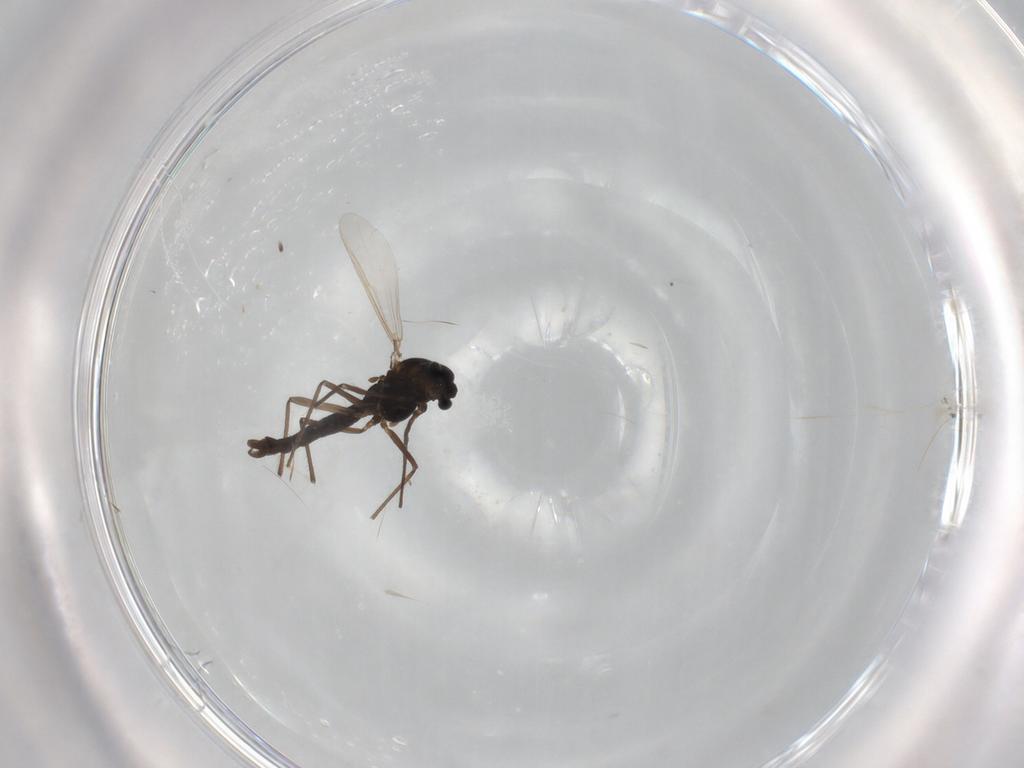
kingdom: Animalia
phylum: Arthropoda
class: Insecta
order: Diptera
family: Chironomidae
